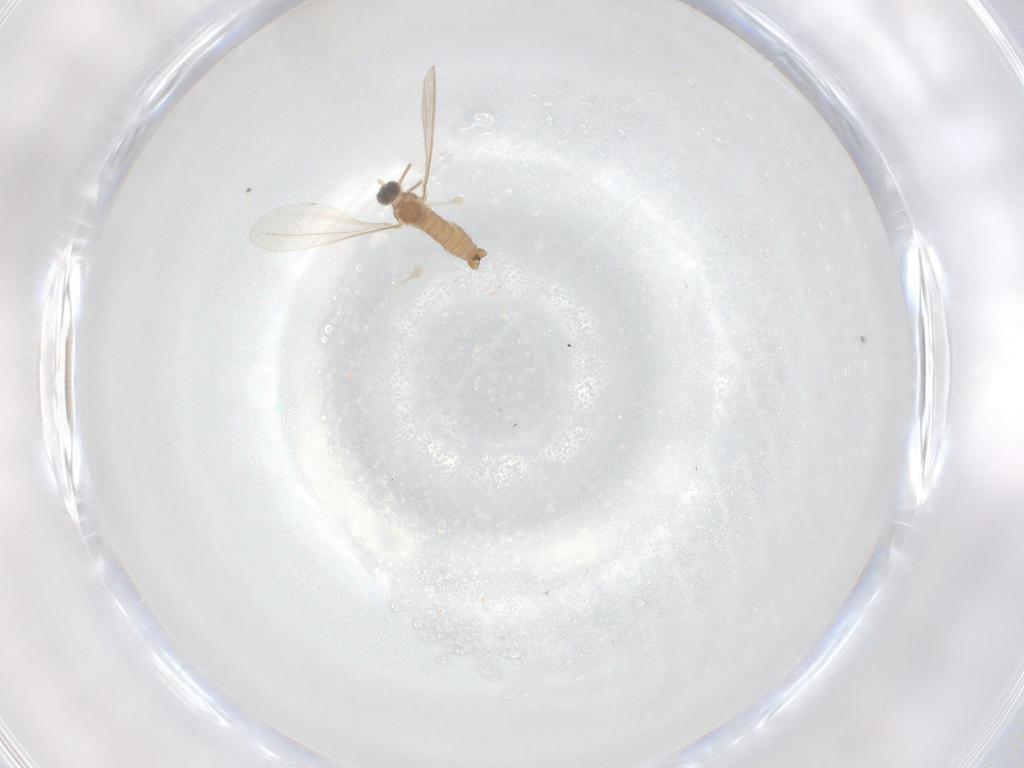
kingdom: Animalia
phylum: Arthropoda
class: Insecta
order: Diptera
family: Cecidomyiidae
